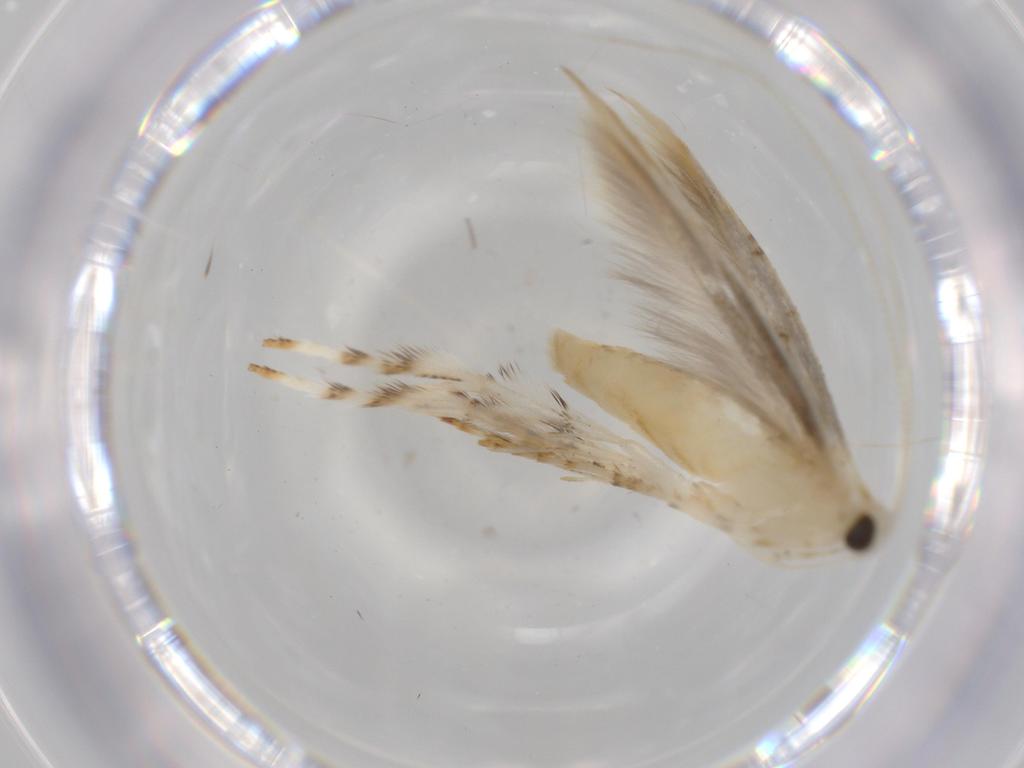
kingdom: Animalia
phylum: Arthropoda
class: Insecta
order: Lepidoptera
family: Gracillariidae
